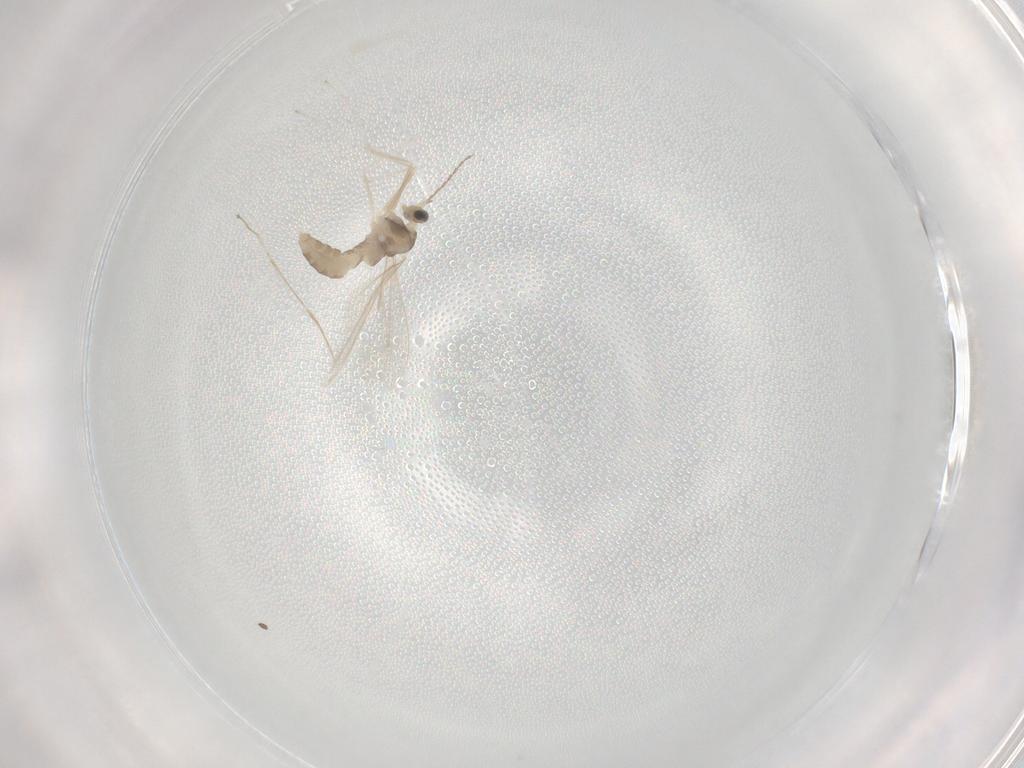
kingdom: Animalia
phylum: Arthropoda
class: Insecta
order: Diptera
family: Cecidomyiidae
